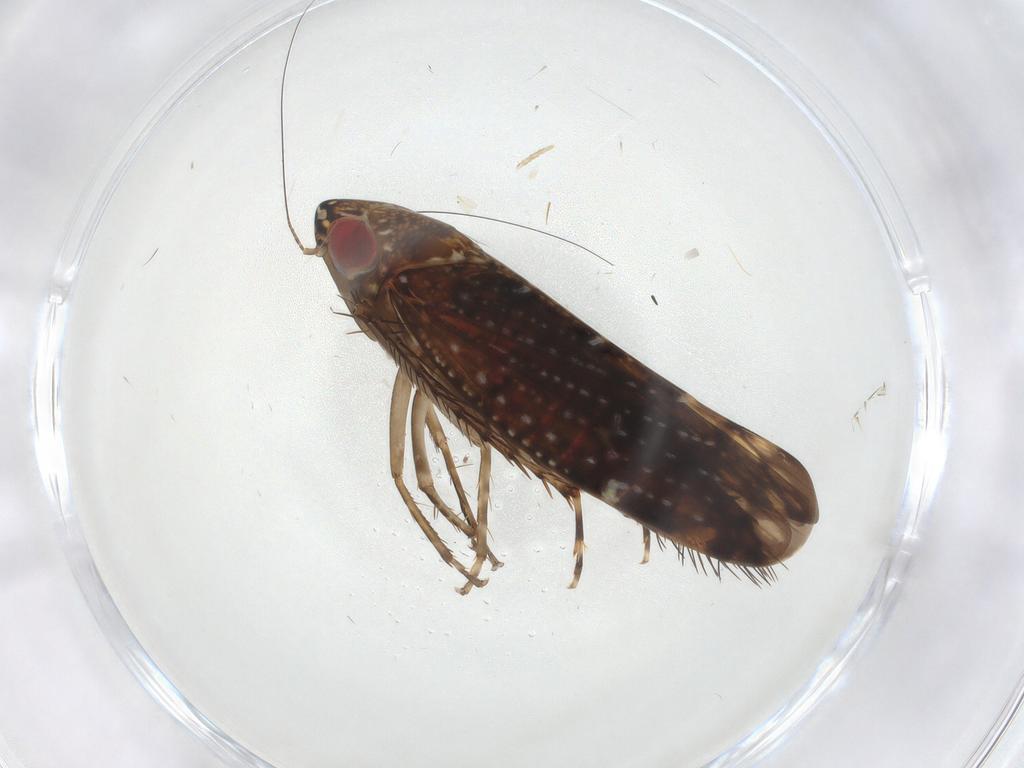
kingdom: Animalia
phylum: Arthropoda
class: Insecta
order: Hemiptera
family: Cicadellidae
